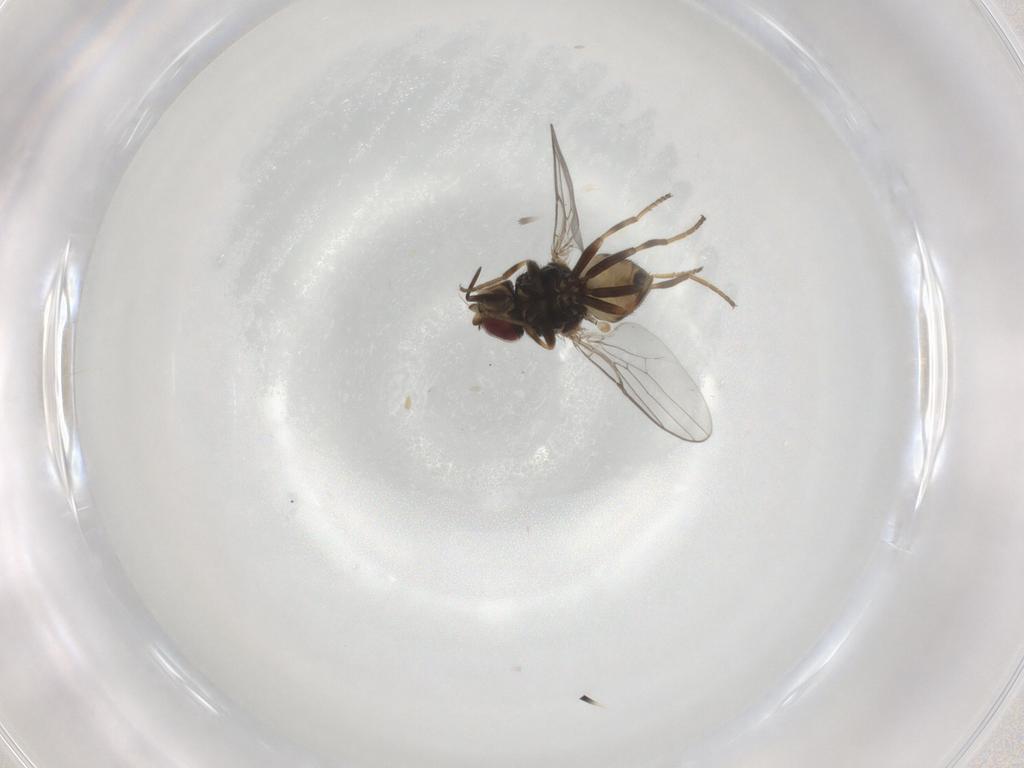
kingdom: Animalia
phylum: Arthropoda
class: Insecta
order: Diptera
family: Chloropidae
